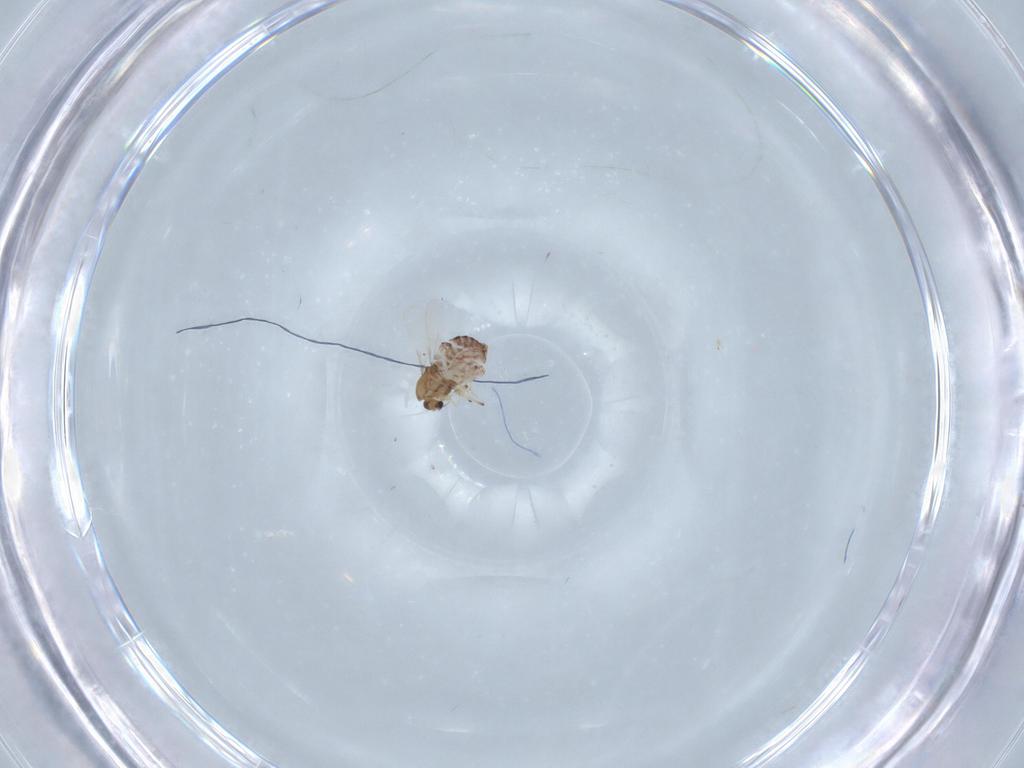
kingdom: Animalia
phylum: Arthropoda
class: Insecta
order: Diptera
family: Chironomidae
